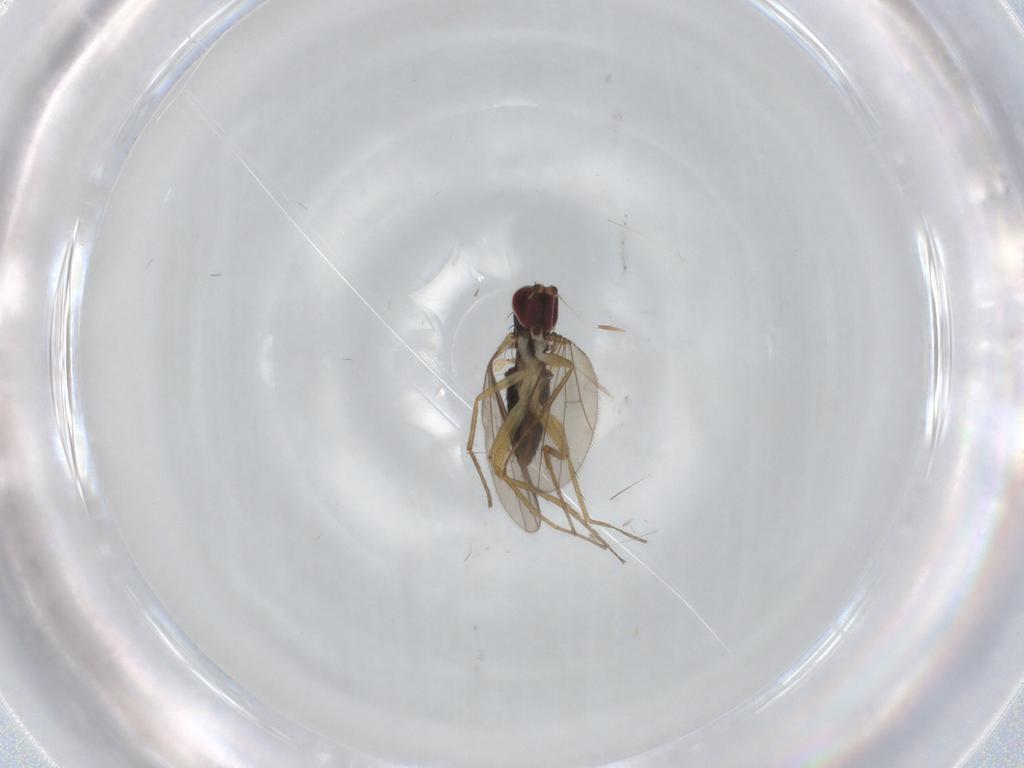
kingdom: Animalia
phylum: Arthropoda
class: Insecta
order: Diptera
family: Dolichopodidae
